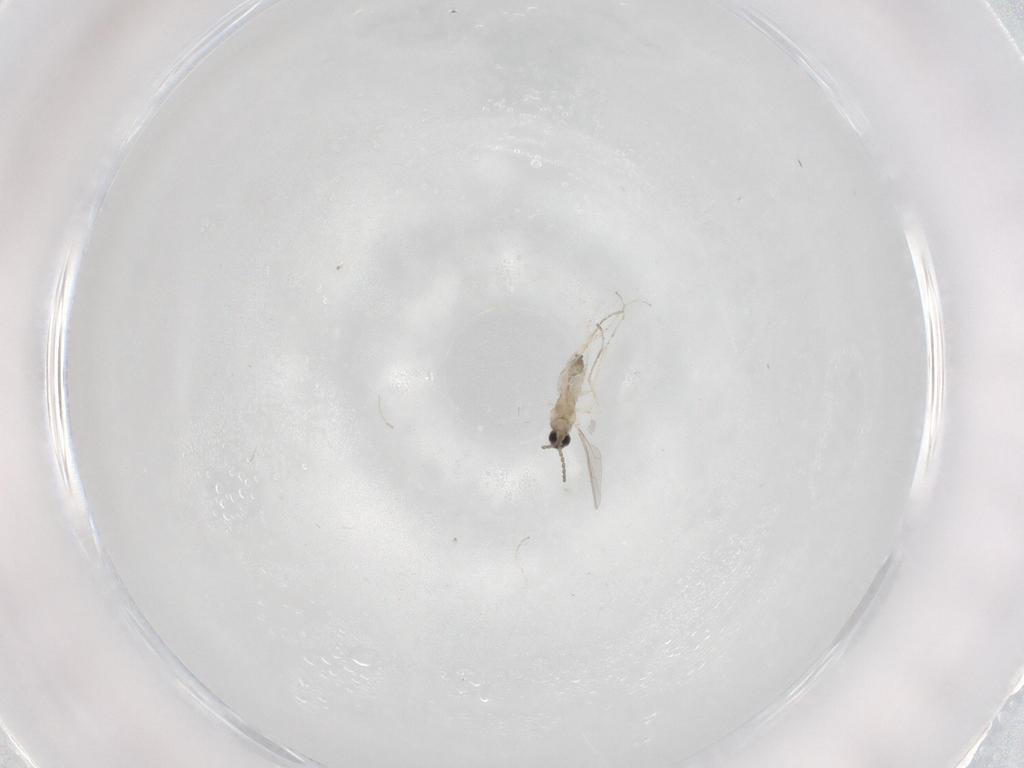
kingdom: Animalia
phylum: Arthropoda
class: Insecta
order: Diptera
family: Cecidomyiidae
